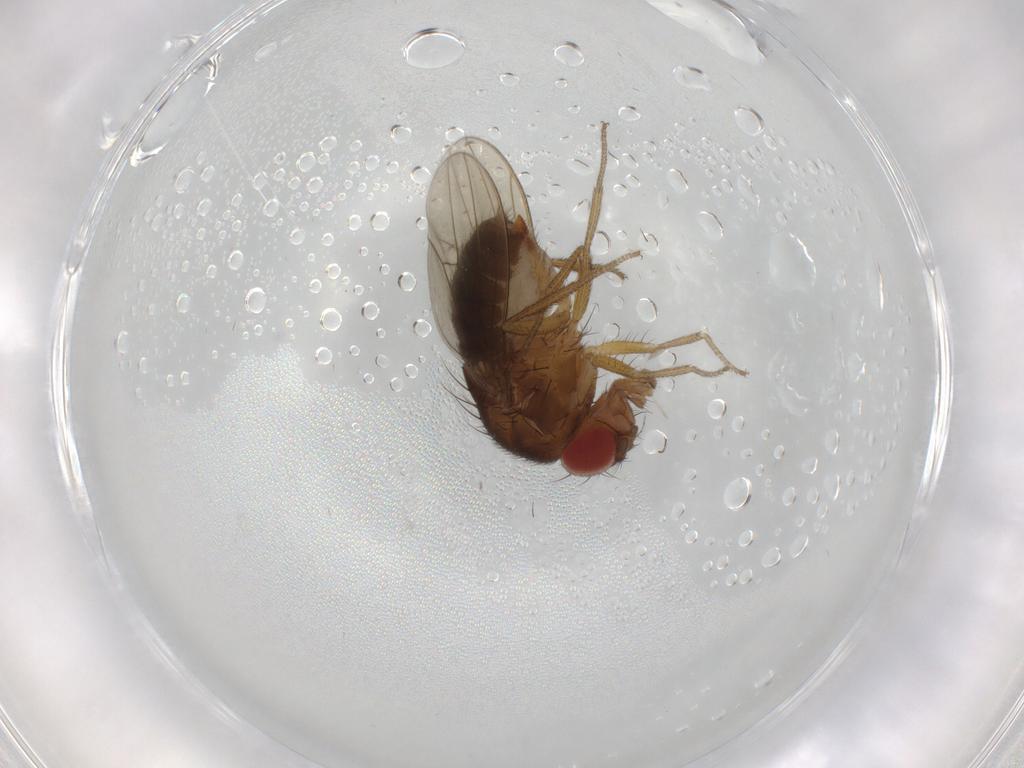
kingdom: Animalia
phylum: Arthropoda
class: Insecta
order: Diptera
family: Drosophilidae
